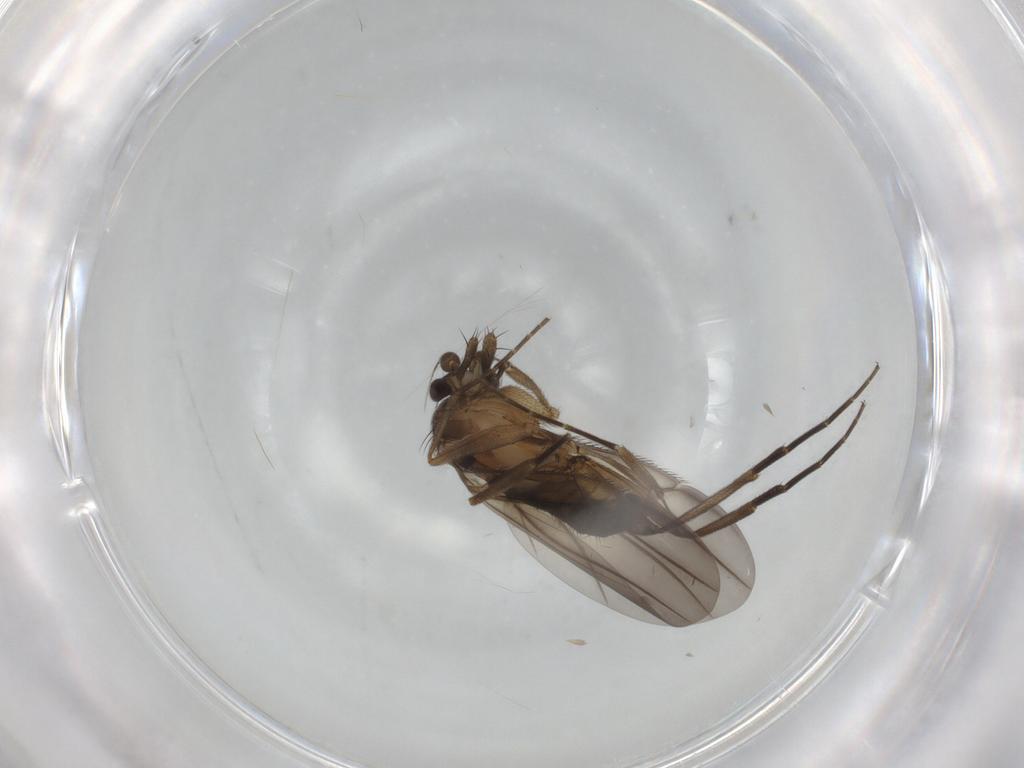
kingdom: Animalia
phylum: Arthropoda
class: Insecta
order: Diptera
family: Phoridae
